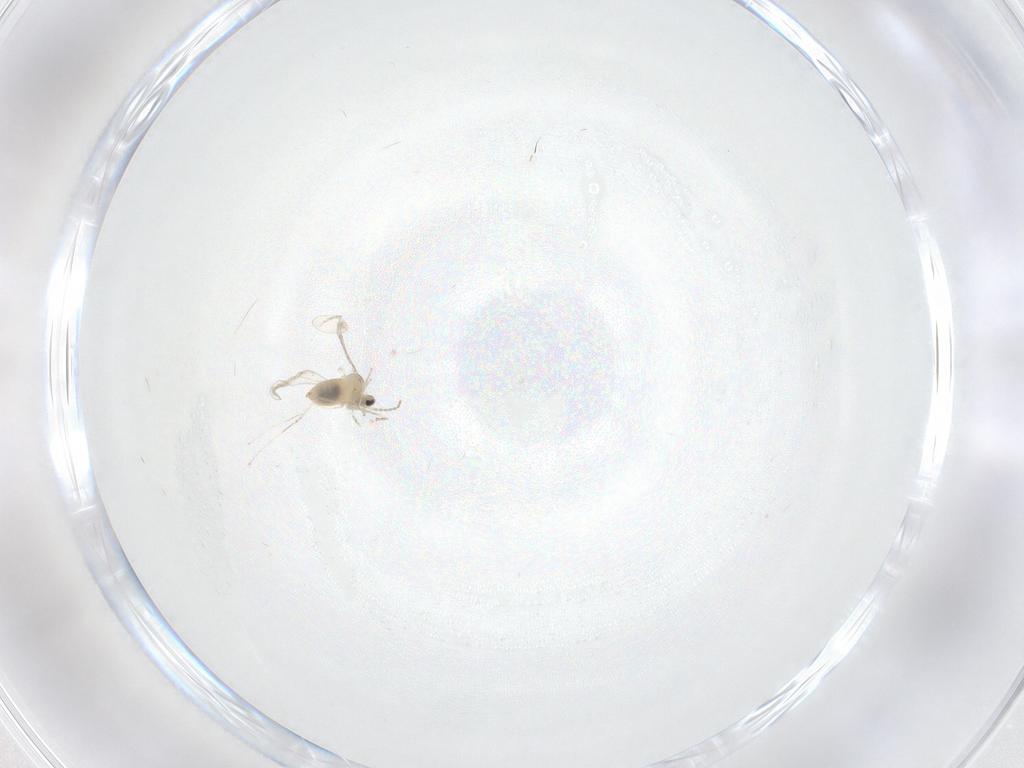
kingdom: Animalia
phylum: Arthropoda
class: Insecta
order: Diptera
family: Cecidomyiidae
